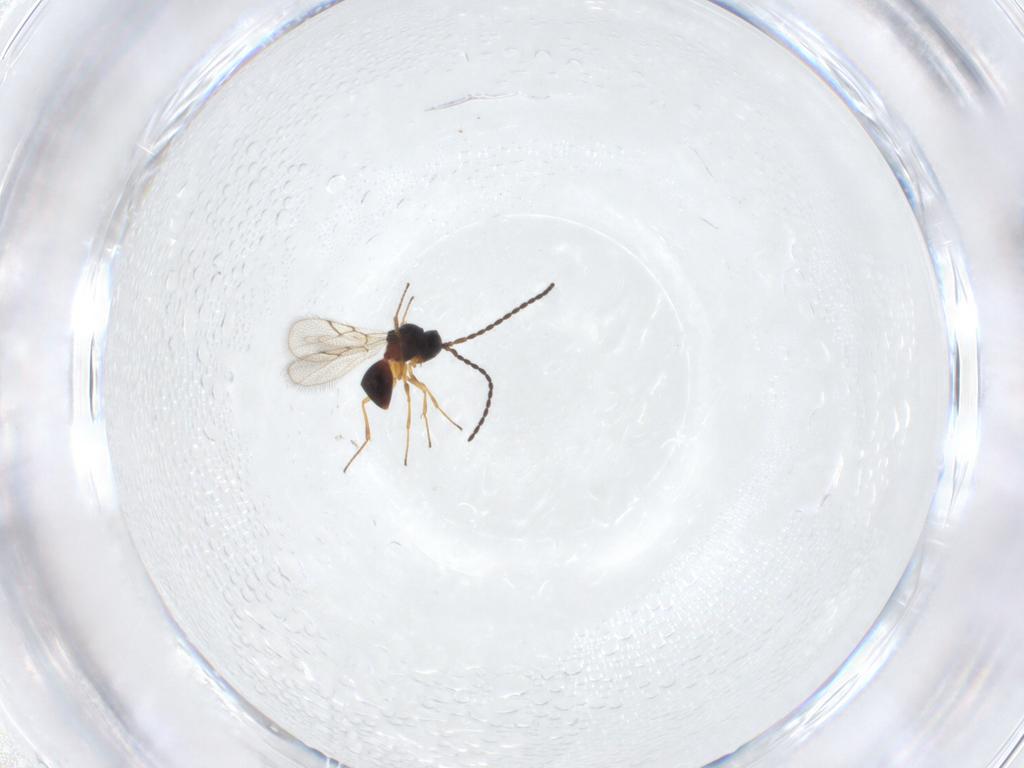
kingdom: Animalia
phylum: Arthropoda
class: Insecta
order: Hymenoptera
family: Figitidae
